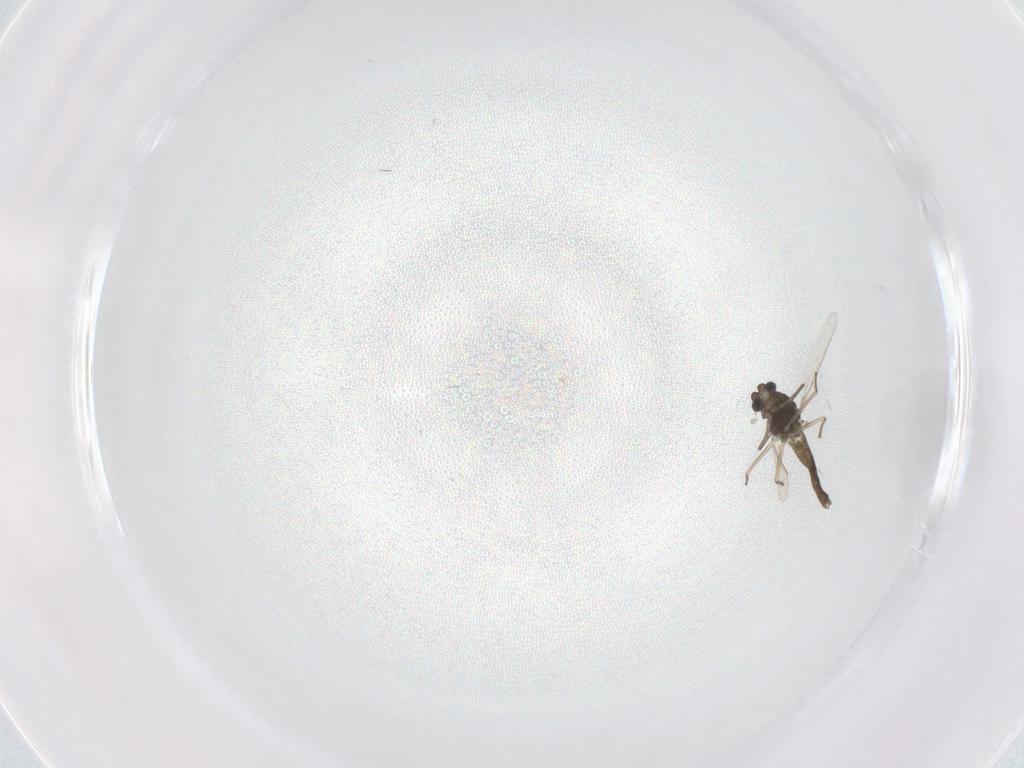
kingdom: Animalia
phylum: Arthropoda
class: Insecta
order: Diptera
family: Chironomidae
